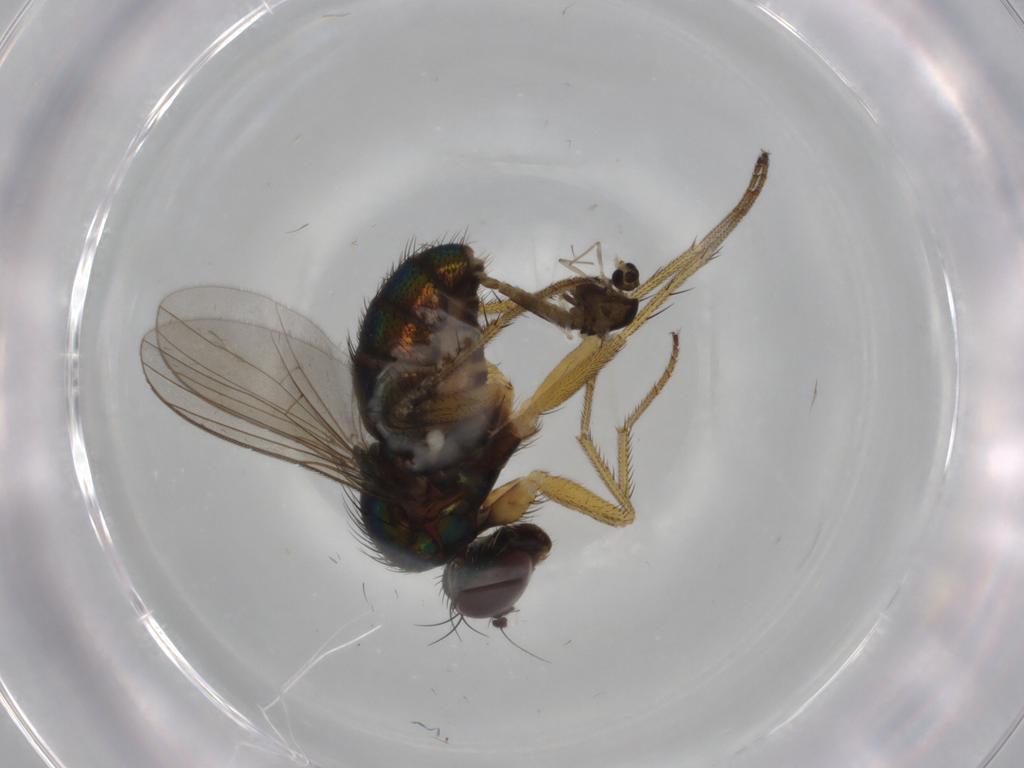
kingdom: Animalia
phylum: Arthropoda
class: Insecta
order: Diptera
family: Dolichopodidae
